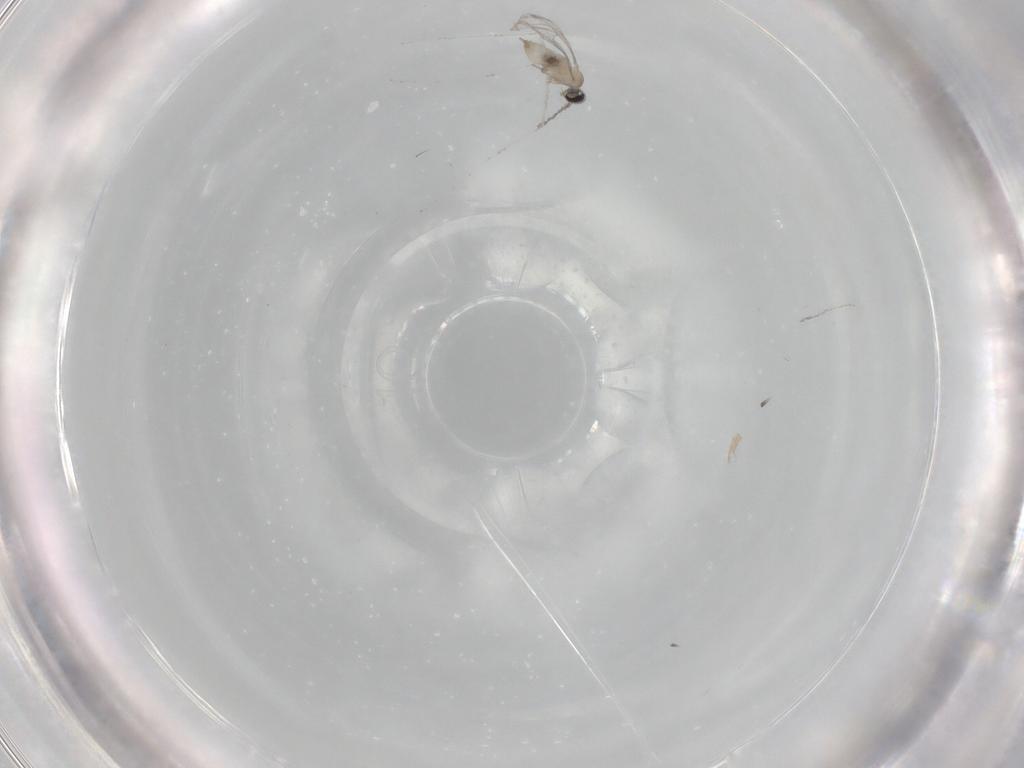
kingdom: Animalia
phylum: Arthropoda
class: Insecta
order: Diptera
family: Cecidomyiidae
